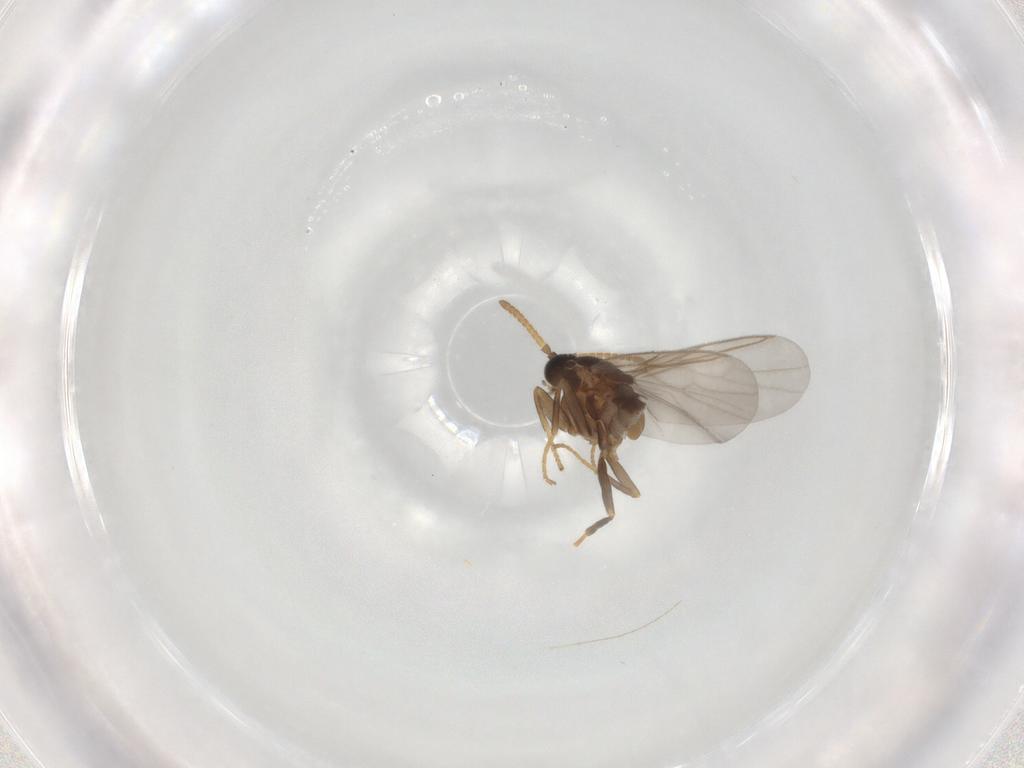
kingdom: Animalia
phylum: Arthropoda
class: Insecta
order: Diptera
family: Scatopsidae
